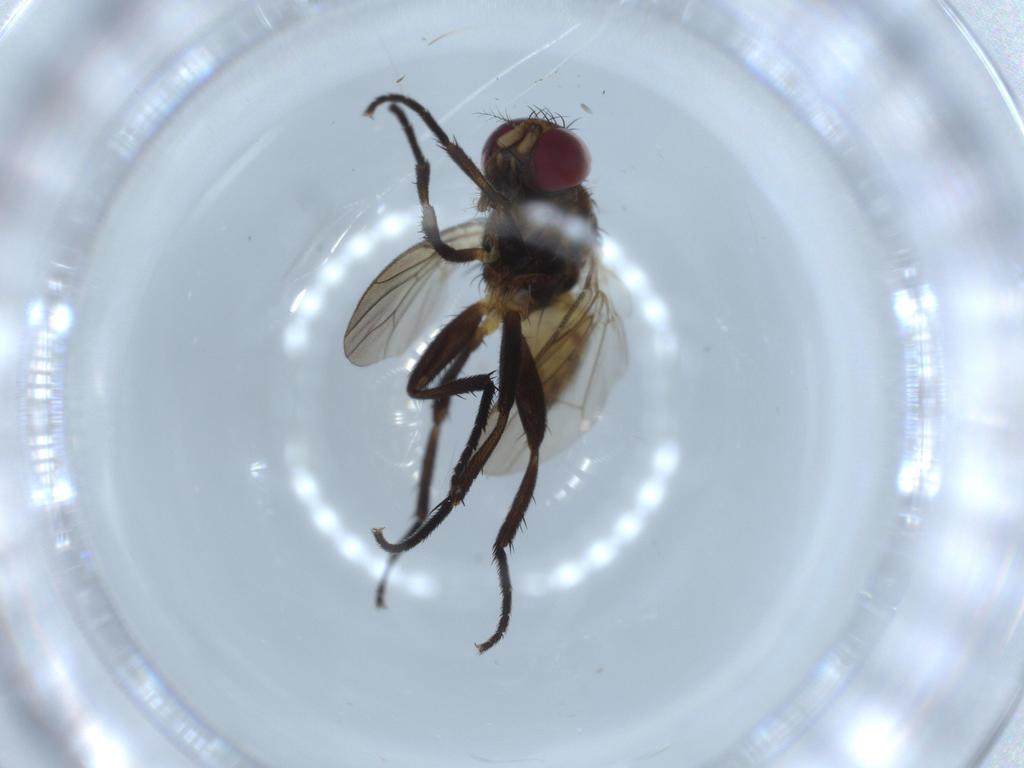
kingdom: Animalia
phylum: Arthropoda
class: Insecta
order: Diptera
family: Anthomyiidae
